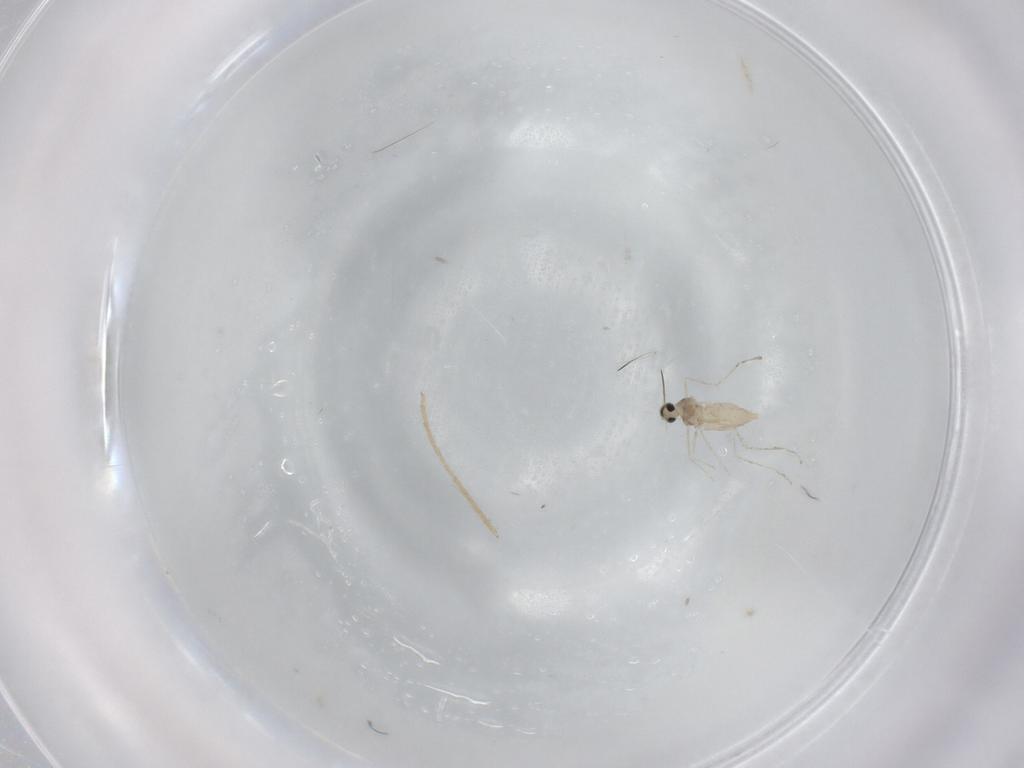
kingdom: Animalia
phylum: Arthropoda
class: Insecta
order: Diptera
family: Cecidomyiidae
